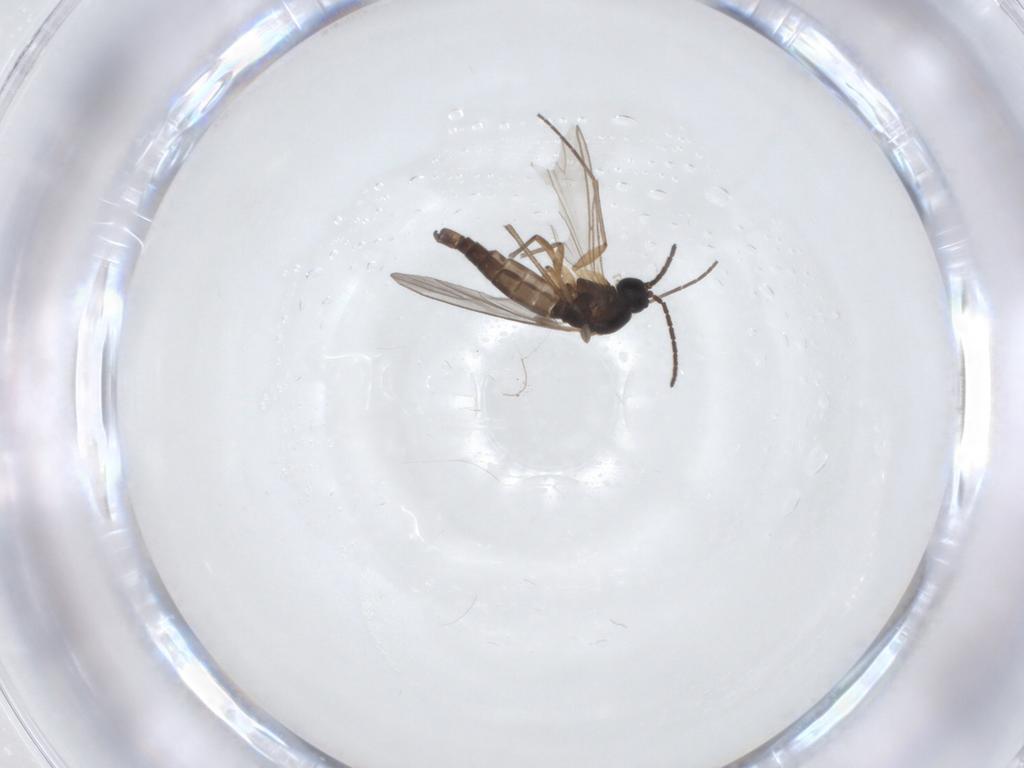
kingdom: Animalia
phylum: Arthropoda
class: Insecta
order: Diptera
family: Sciaridae
